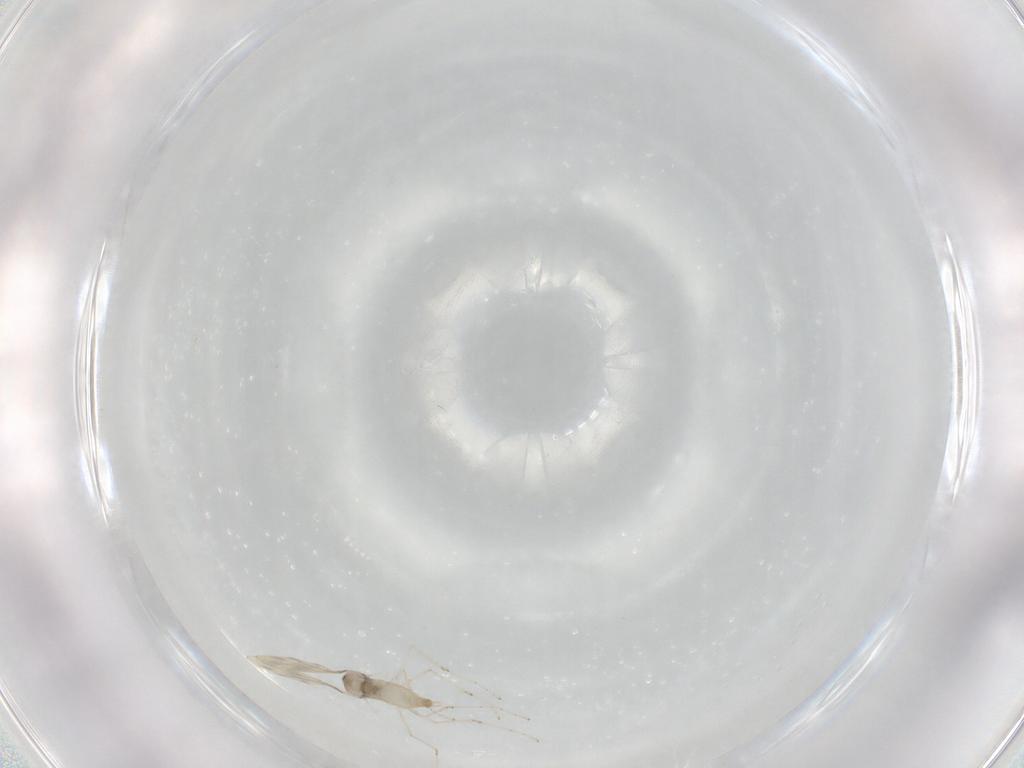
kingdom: Animalia
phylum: Arthropoda
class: Insecta
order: Diptera
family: Cecidomyiidae
